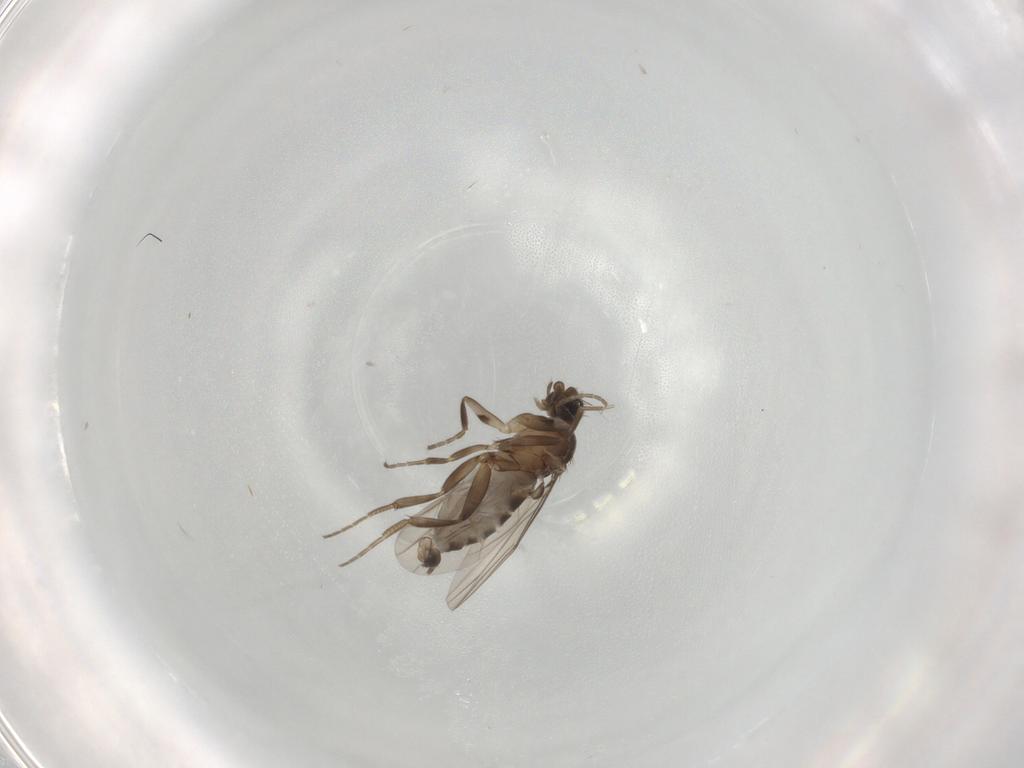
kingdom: Animalia
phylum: Arthropoda
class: Insecta
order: Diptera
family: Phoridae
